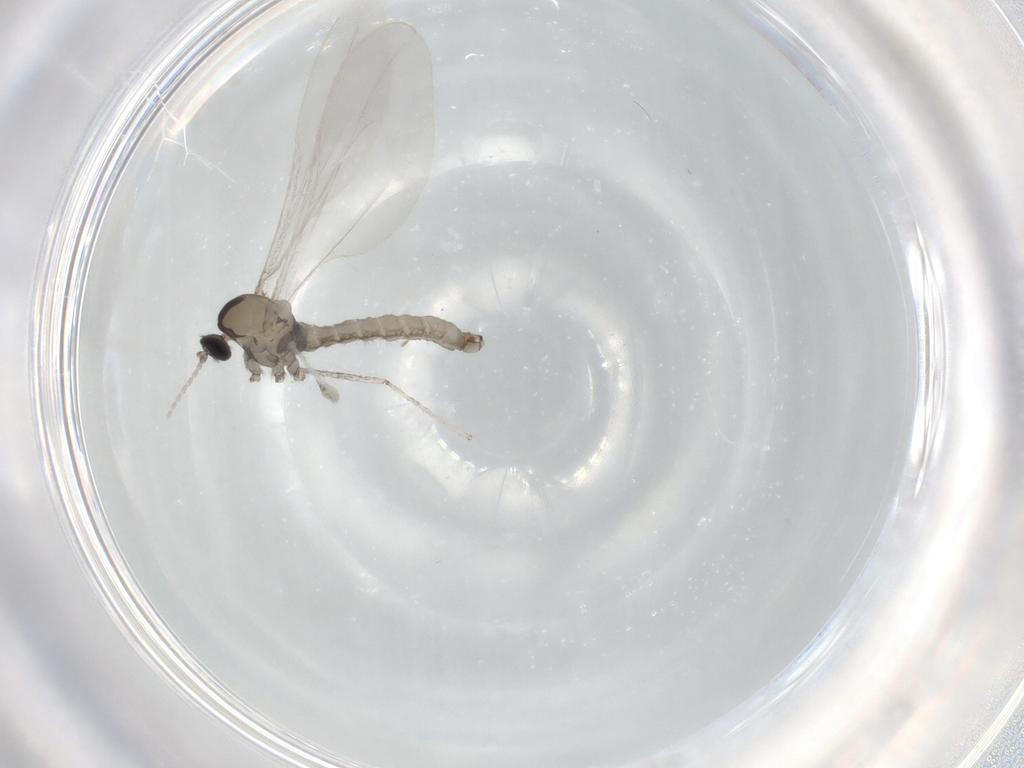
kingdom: Animalia
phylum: Arthropoda
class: Insecta
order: Diptera
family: Cecidomyiidae
